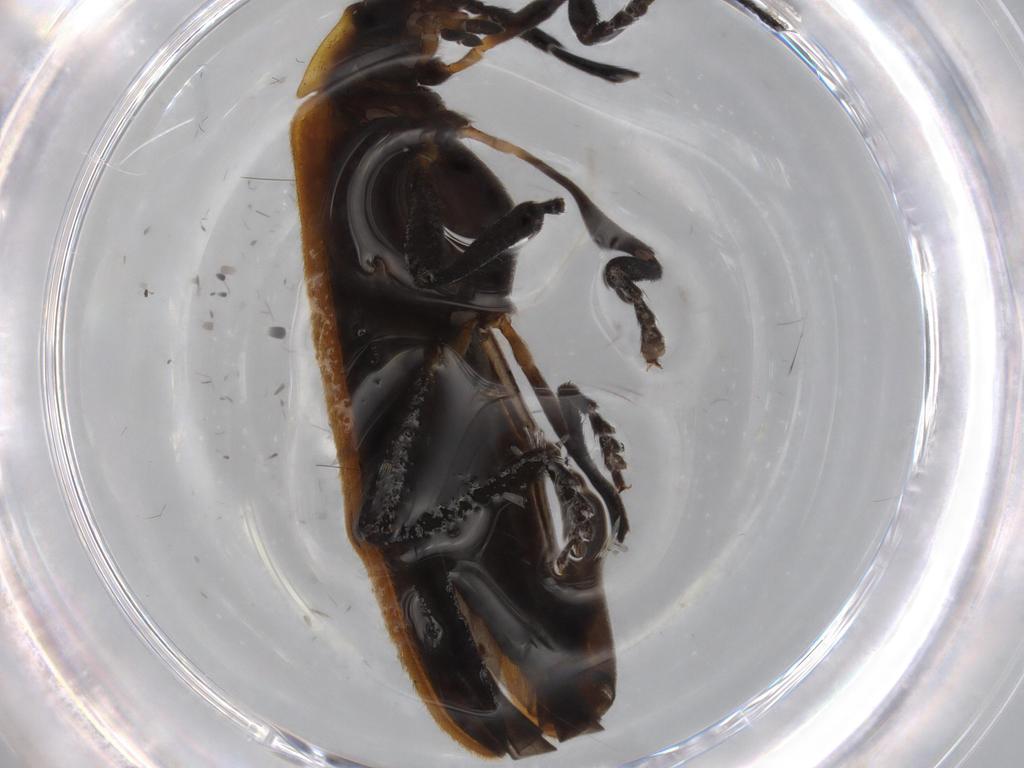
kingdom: Animalia
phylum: Arthropoda
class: Insecta
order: Coleoptera
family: Lycidae
